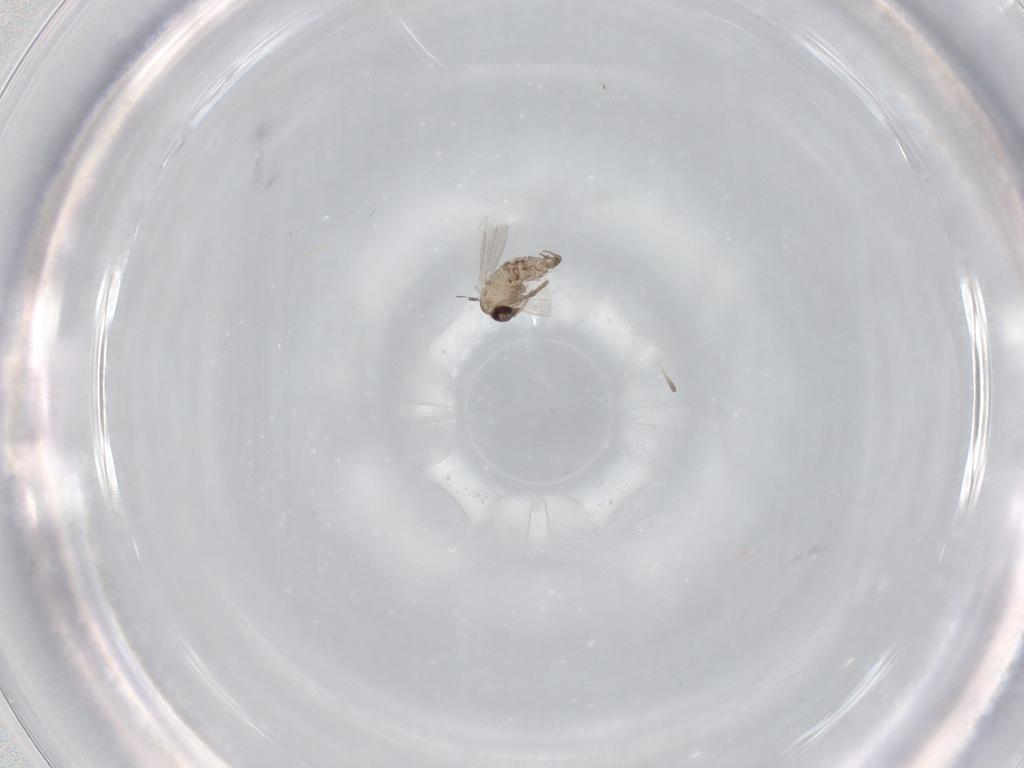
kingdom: Animalia
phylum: Arthropoda
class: Insecta
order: Diptera
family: Psychodidae
